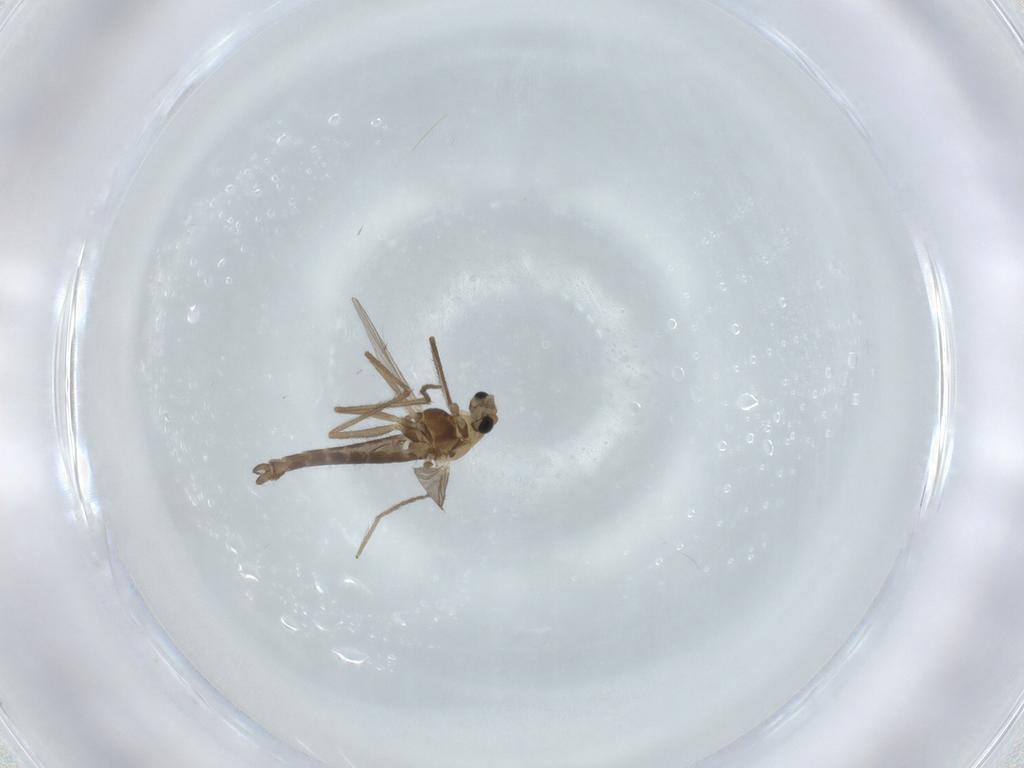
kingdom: Animalia
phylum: Arthropoda
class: Insecta
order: Diptera
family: Chironomidae
